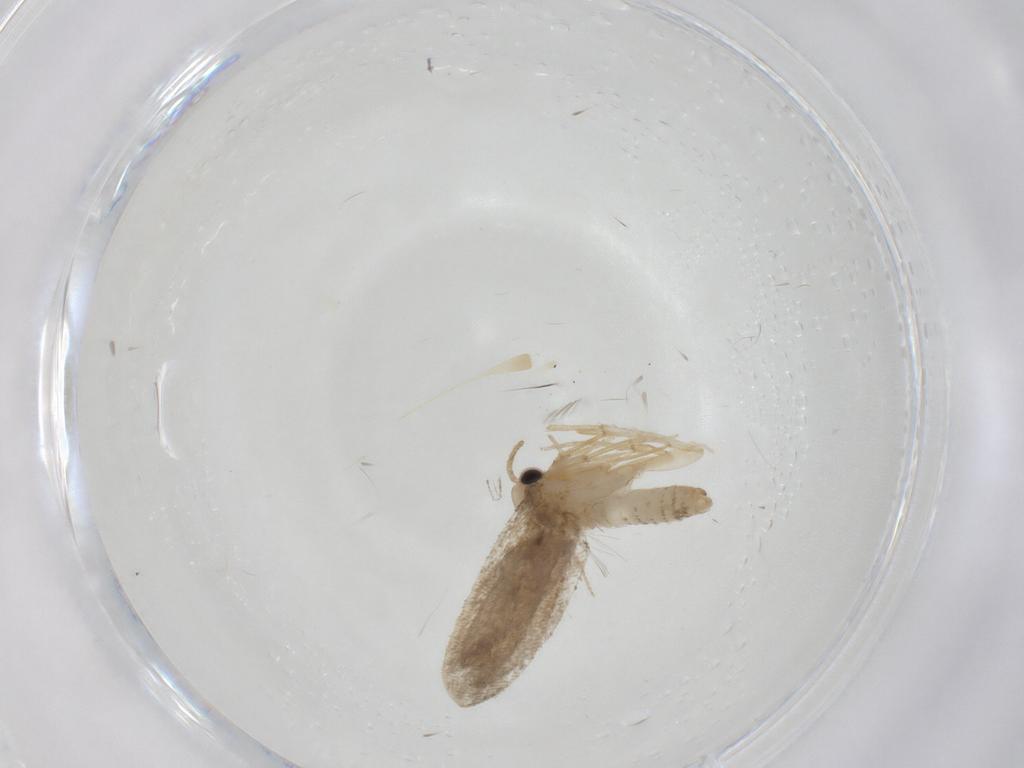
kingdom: Animalia
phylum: Arthropoda
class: Insecta
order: Lepidoptera
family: Psychidae
